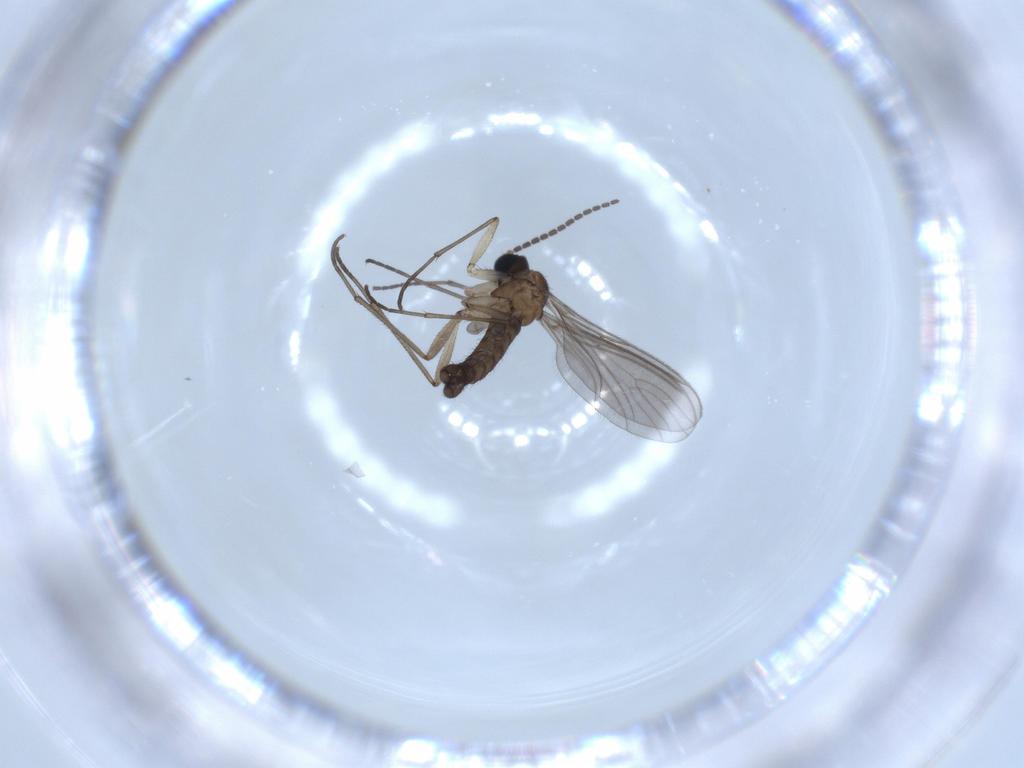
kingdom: Animalia
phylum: Arthropoda
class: Insecta
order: Diptera
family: Sciaridae
